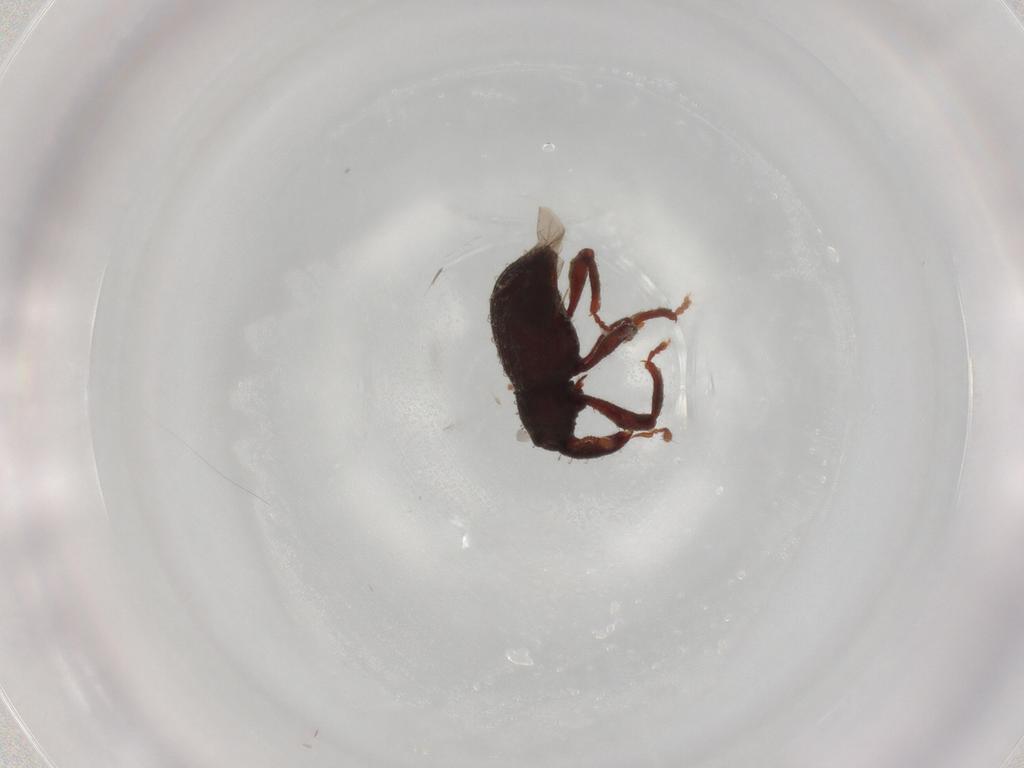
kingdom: Animalia
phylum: Arthropoda
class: Insecta
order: Coleoptera
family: Curculionidae
